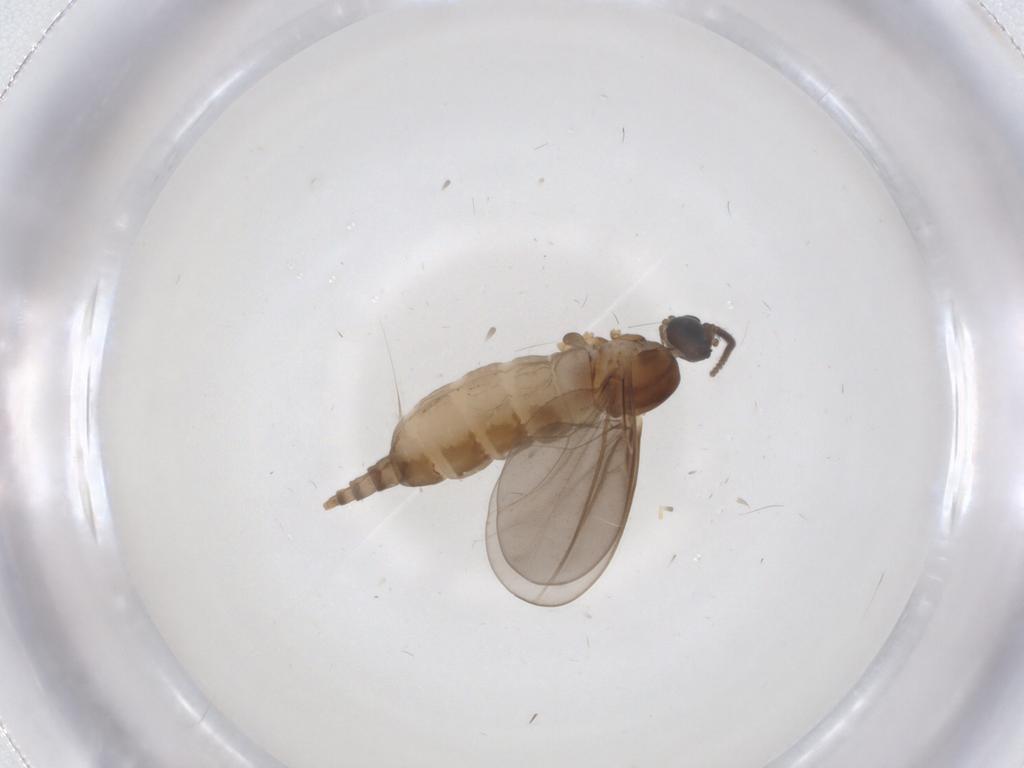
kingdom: Animalia
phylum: Arthropoda
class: Insecta
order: Diptera
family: Cecidomyiidae
